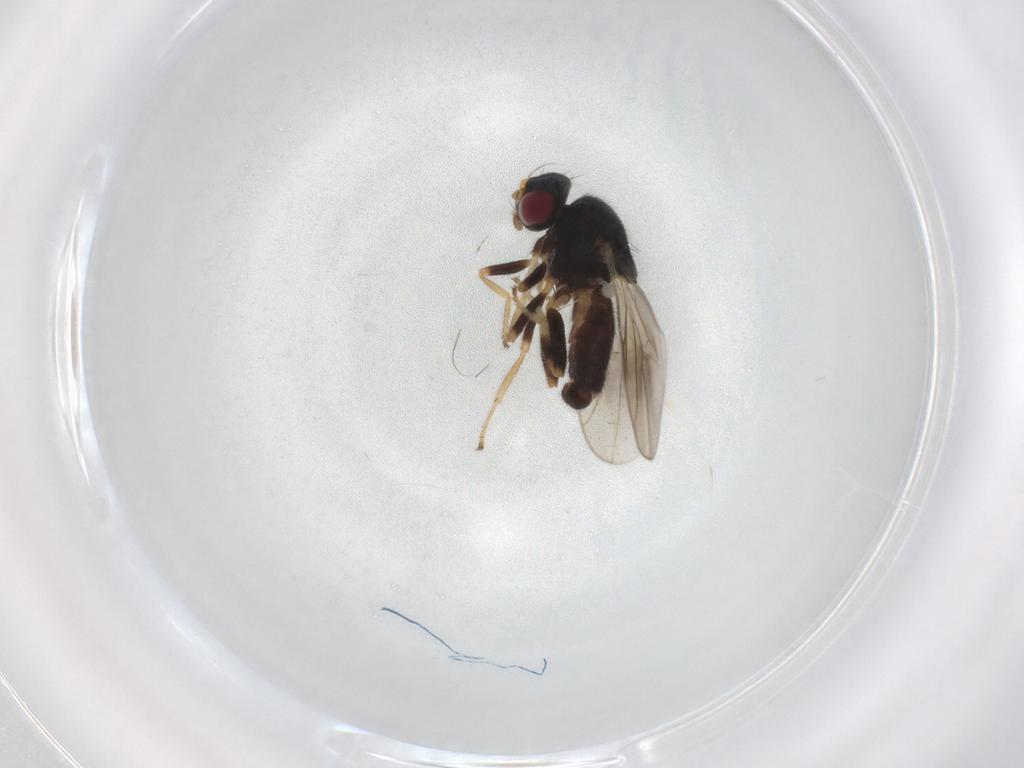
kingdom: Animalia
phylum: Arthropoda
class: Insecta
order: Diptera
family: Chloropidae
